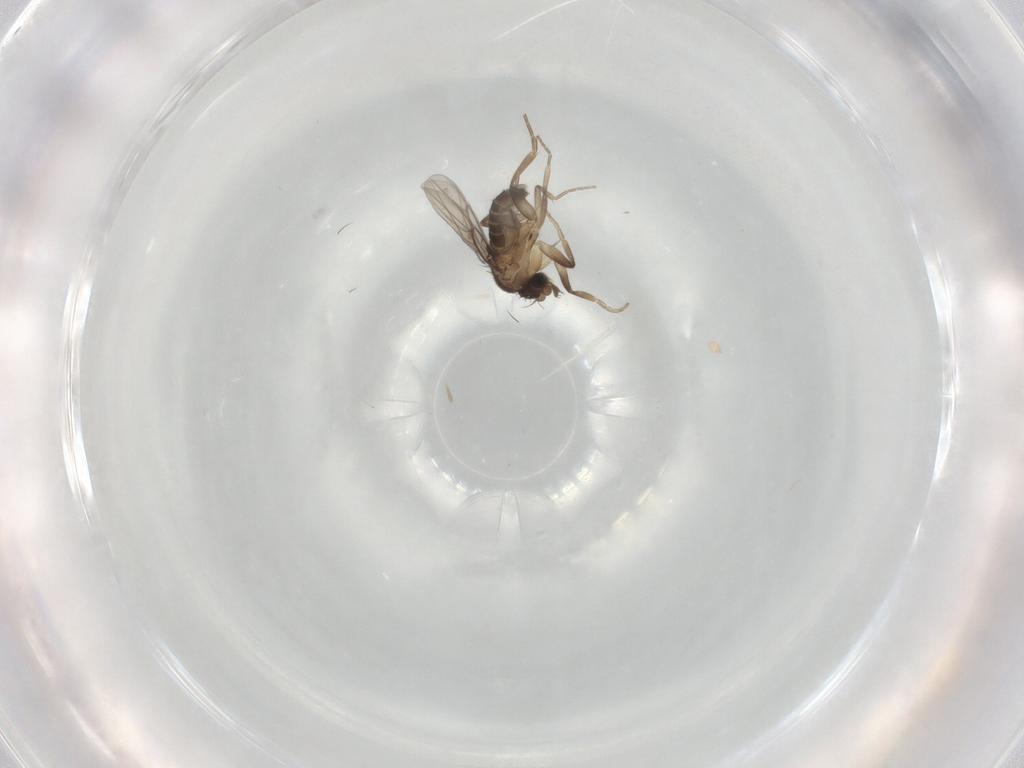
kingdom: Animalia
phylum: Arthropoda
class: Insecta
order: Diptera
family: Phoridae
